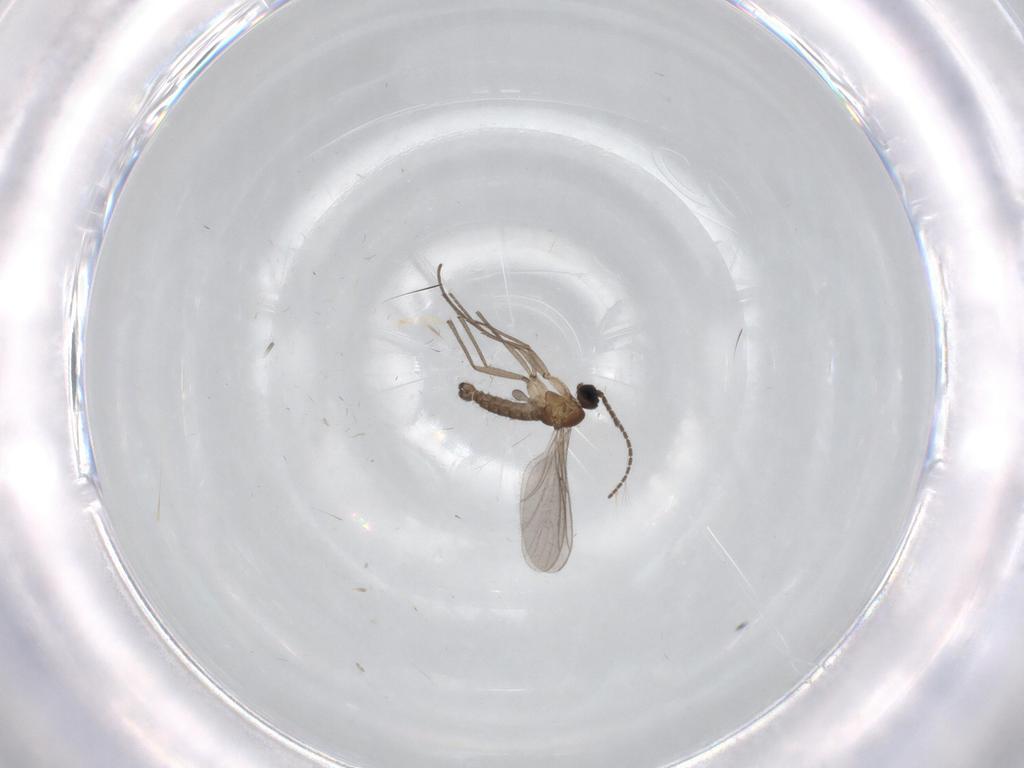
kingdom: Animalia
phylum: Arthropoda
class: Insecta
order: Diptera
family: Sciaridae
